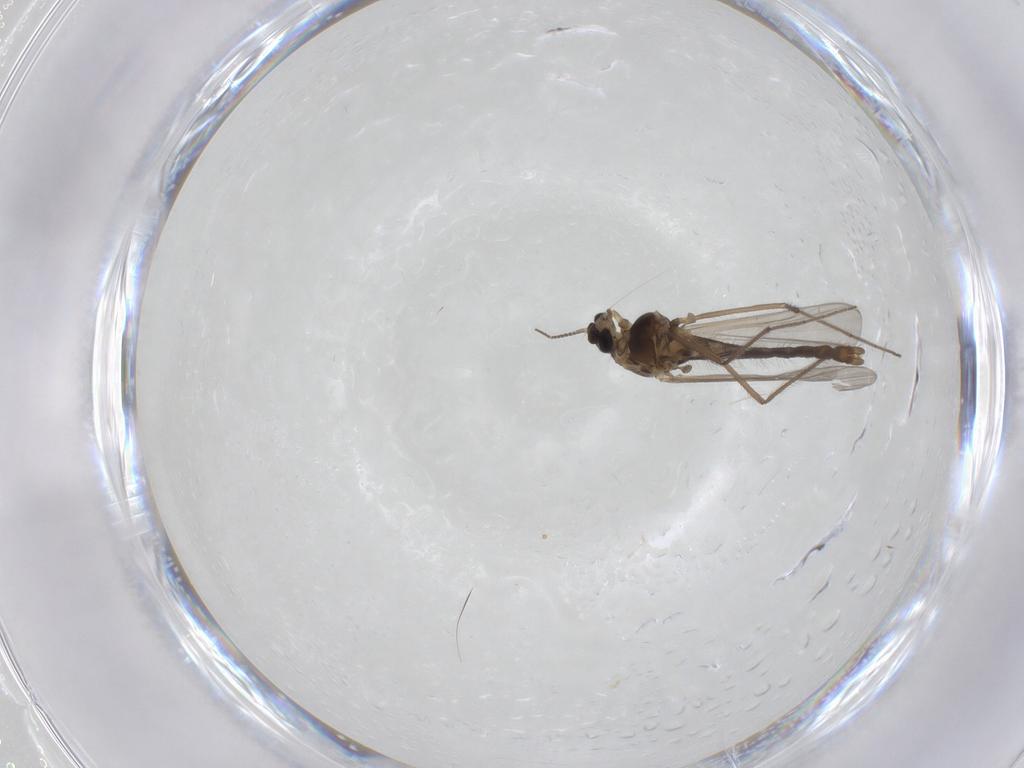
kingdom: Animalia
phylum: Arthropoda
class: Insecta
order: Diptera
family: Chironomidae
